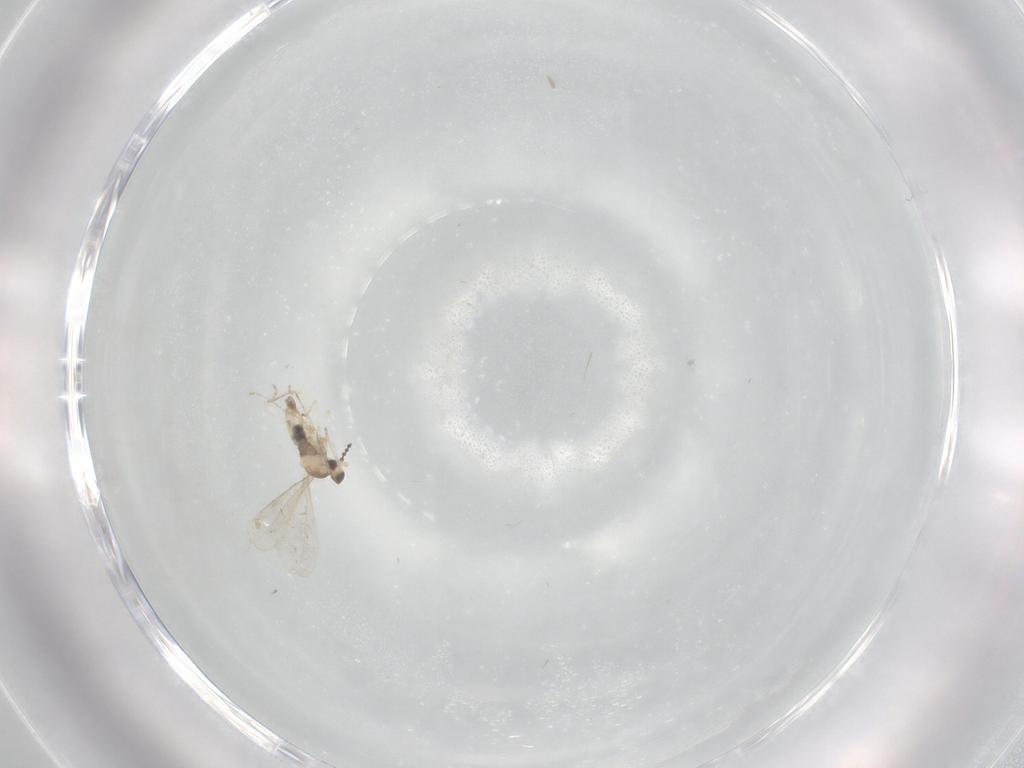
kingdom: Animalia
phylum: Arthropoda
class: Insecta
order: Diptera
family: Cecidomyiidae
